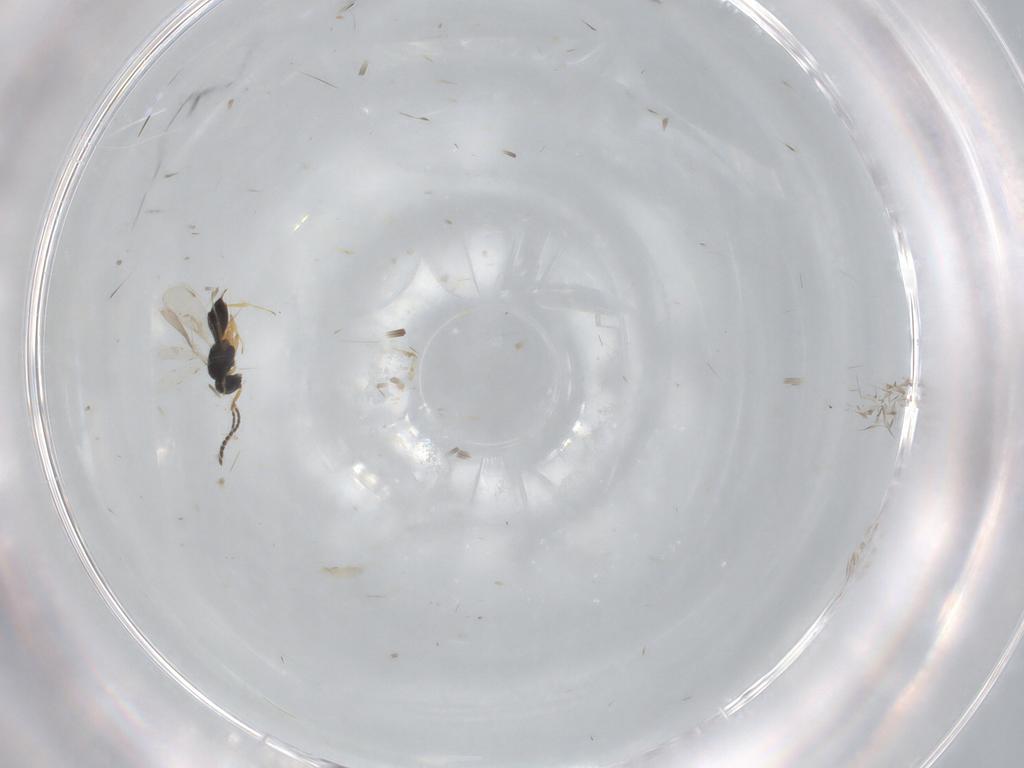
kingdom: Animalia
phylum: Arthropoda
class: Insecta
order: Hymenoptera
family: Scelionidae
